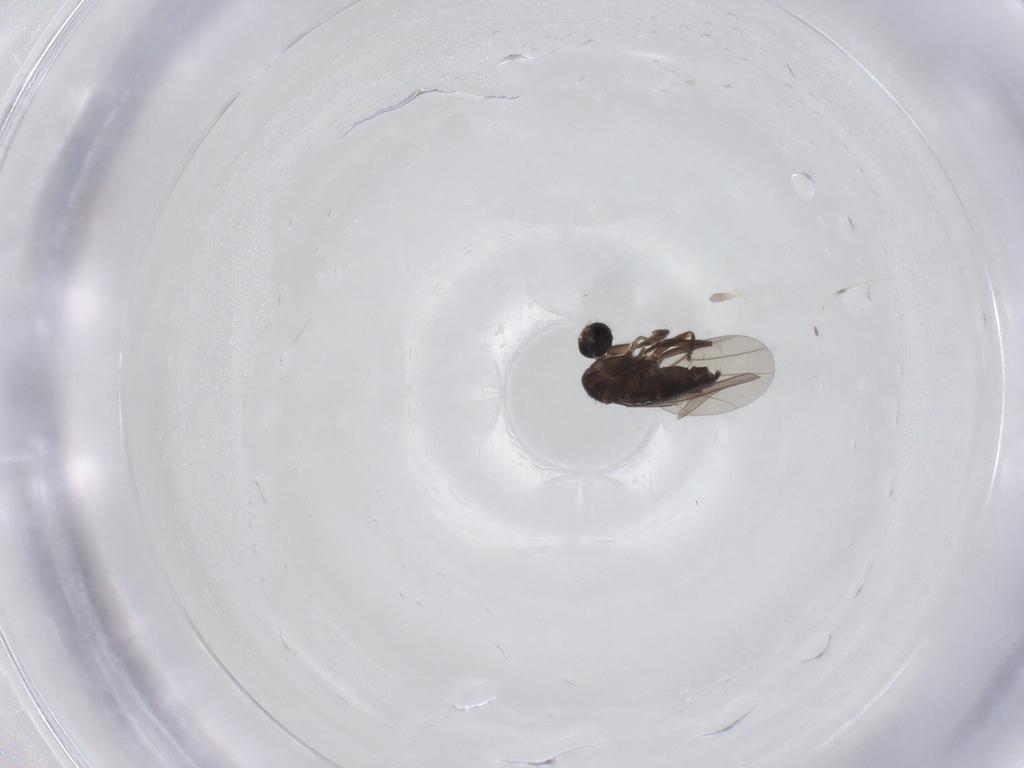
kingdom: Animalia
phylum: Arthropoda
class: Insecta
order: Diptera
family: Phoridae
